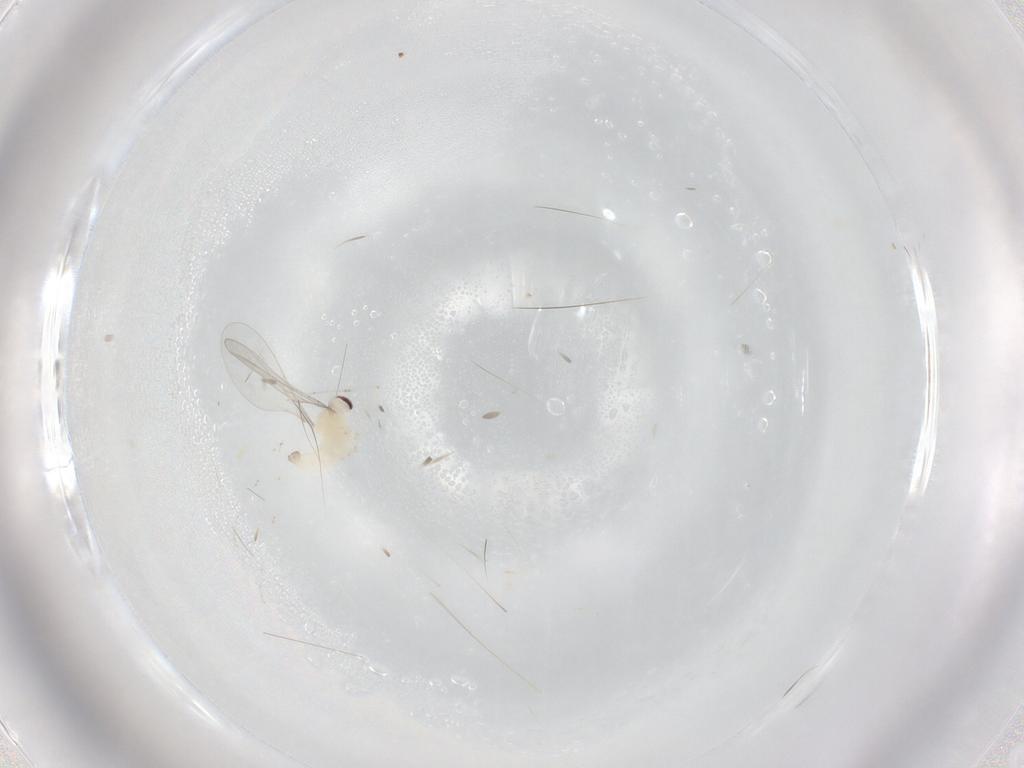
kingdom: Animalia
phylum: Arthropoda
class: Insecta
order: Diptera
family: Cecidomyiidae
